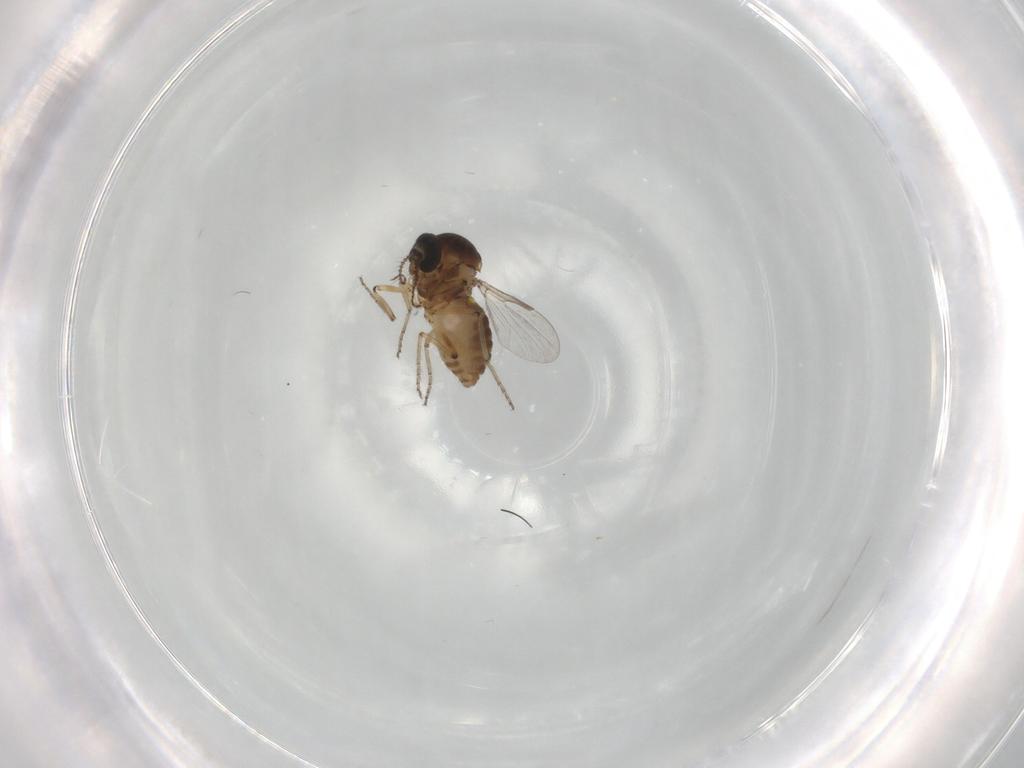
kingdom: Animalia
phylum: Arthropoda
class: Insecta
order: Diptera
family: Ceratopogonidae
